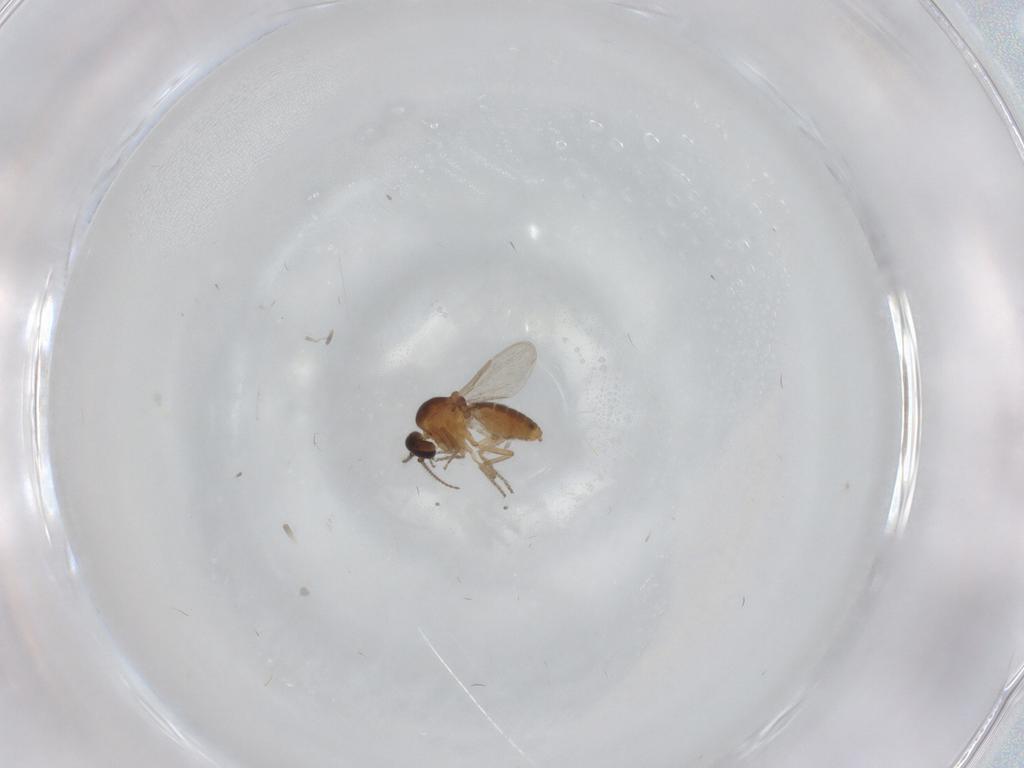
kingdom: Animalia
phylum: Arthropoda
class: Insecta
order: Diptera
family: Ceratopogonidae
